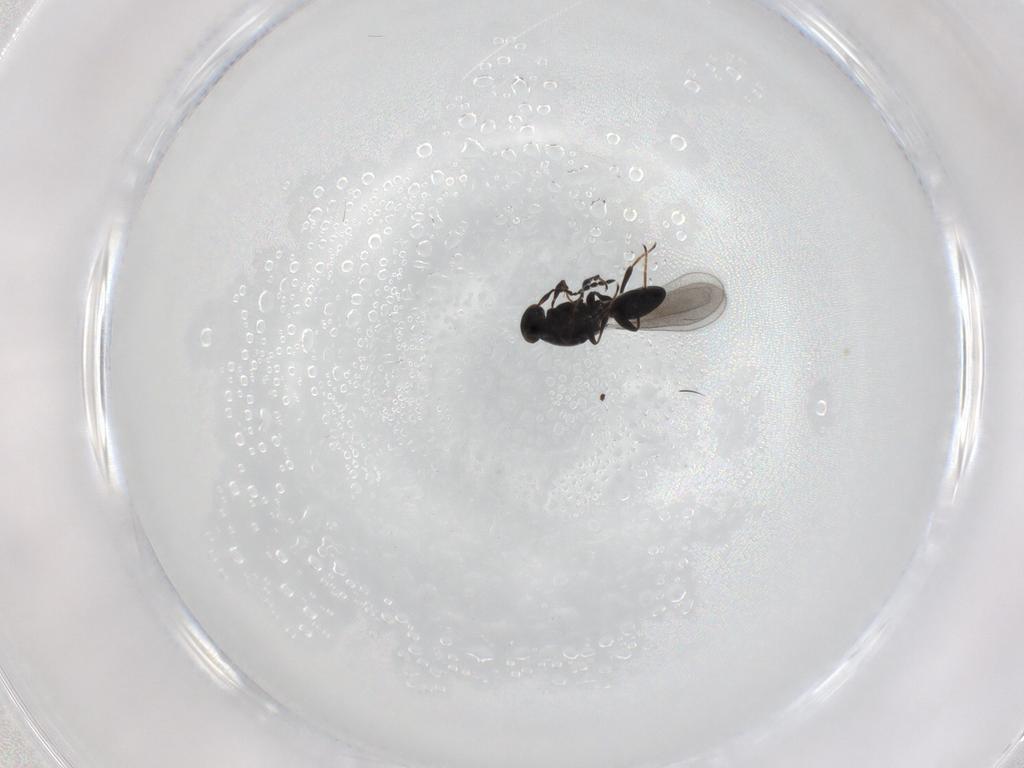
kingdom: Animalia
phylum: Arthropoda
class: Insecta
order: Hymenoptera
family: Platygastridae
